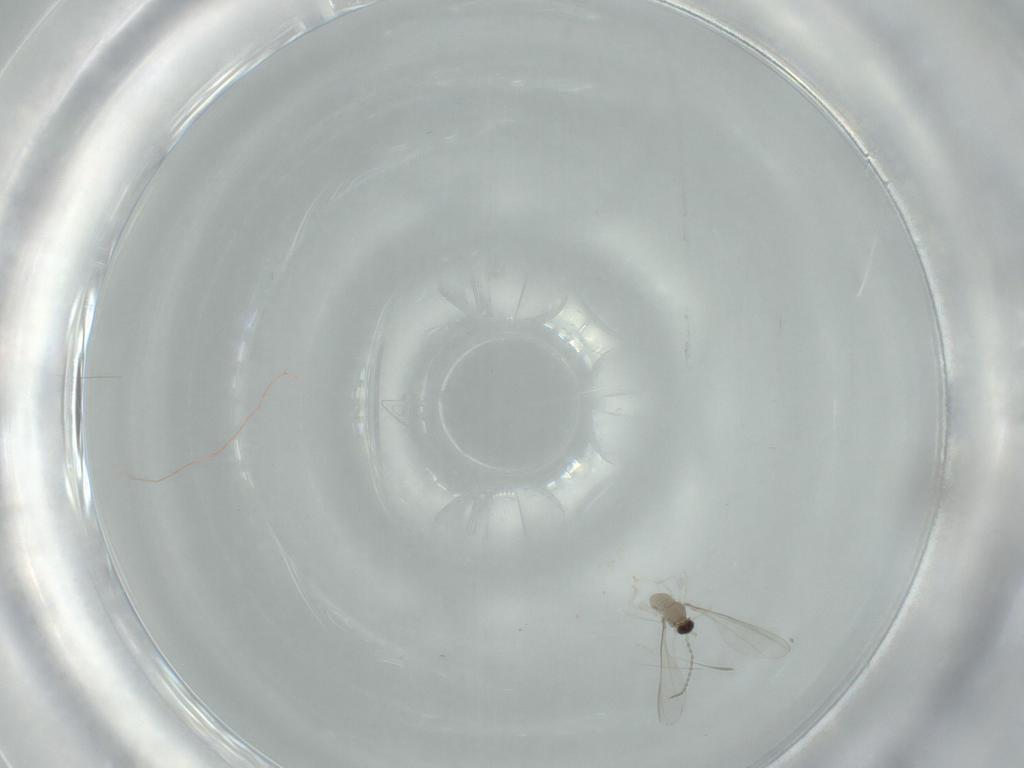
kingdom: Animalia
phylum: Arthropoda
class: Insecta
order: Diptera
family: Cecidomyiidae
